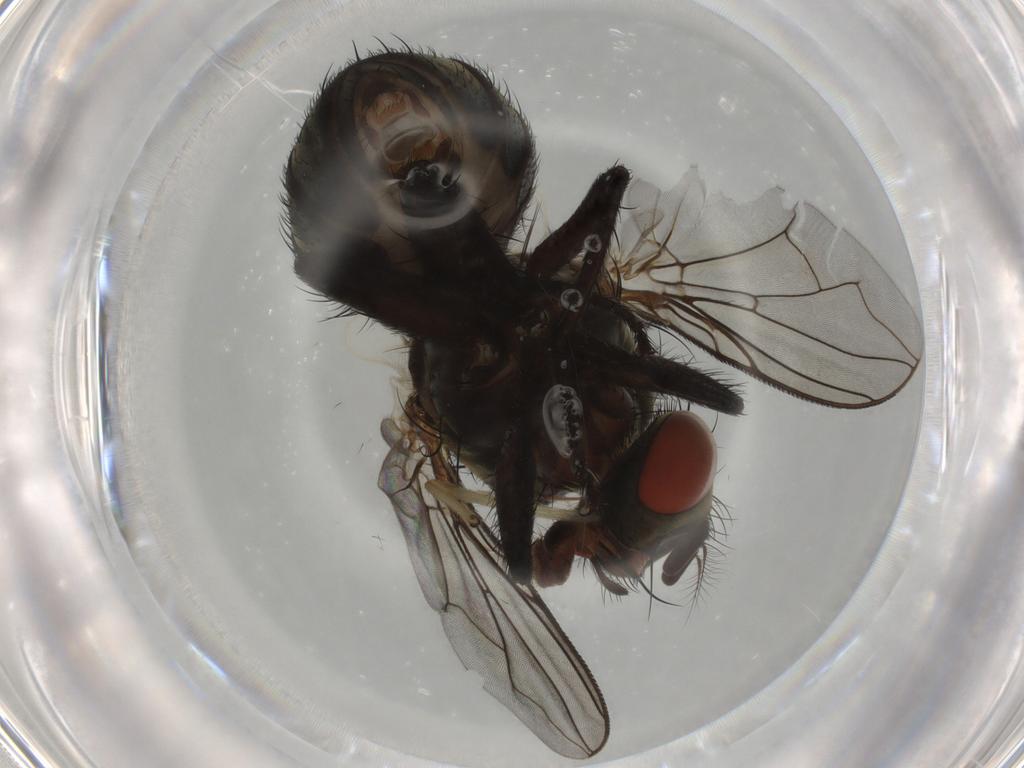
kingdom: Animalia
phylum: Arthropoda
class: Insecta
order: Diptera
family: Sarcophagidae
